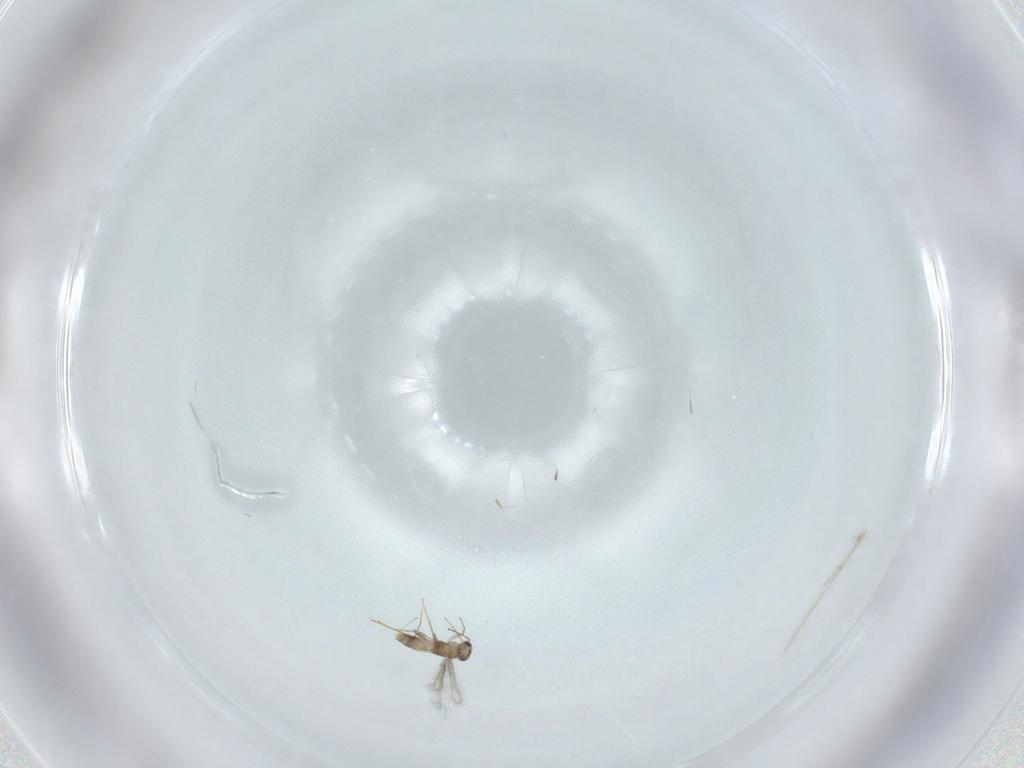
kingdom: Animalia
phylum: Arthropoda
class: Insecta
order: Hymenoptera
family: Mymaridae
